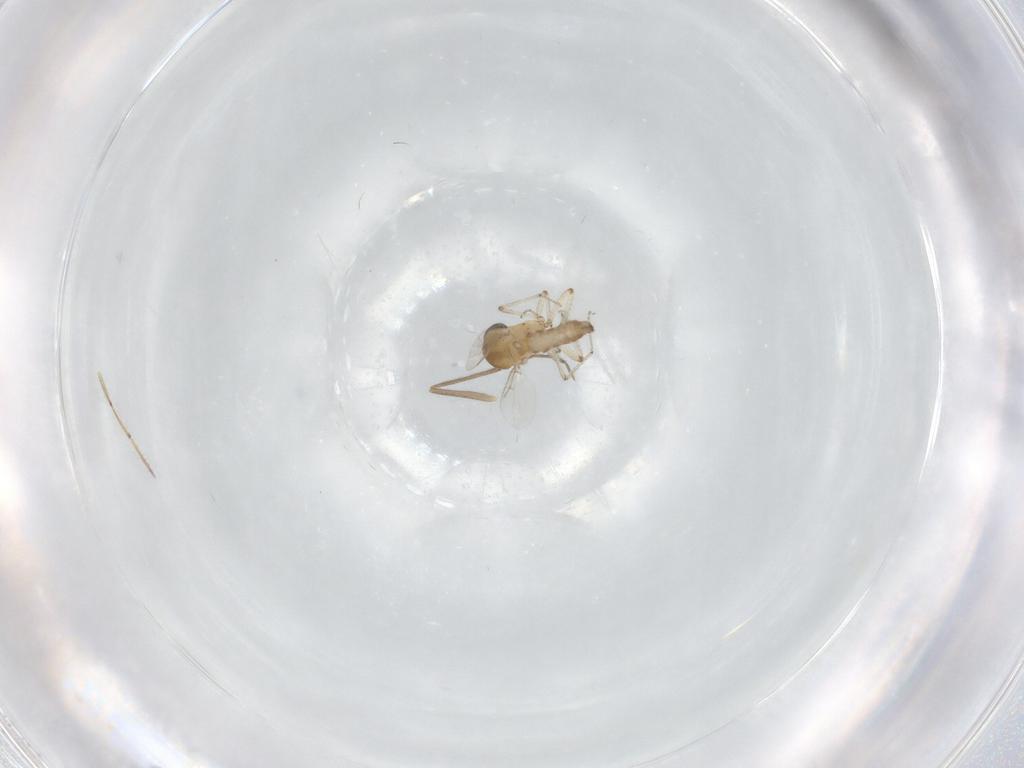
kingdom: Animalia
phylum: Arthropoda
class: Insecta
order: Diptera
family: Ceratopogonidae
